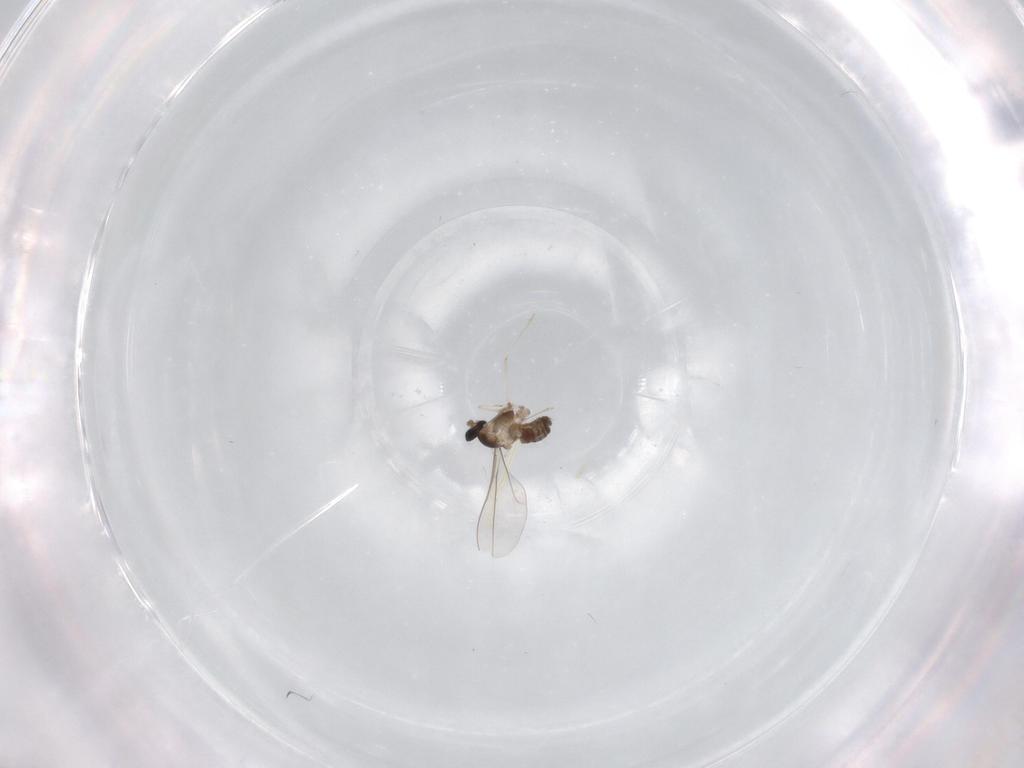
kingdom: Animalia
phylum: Arthropoda
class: Insecta
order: Diptera
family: Cecidomyiidae
